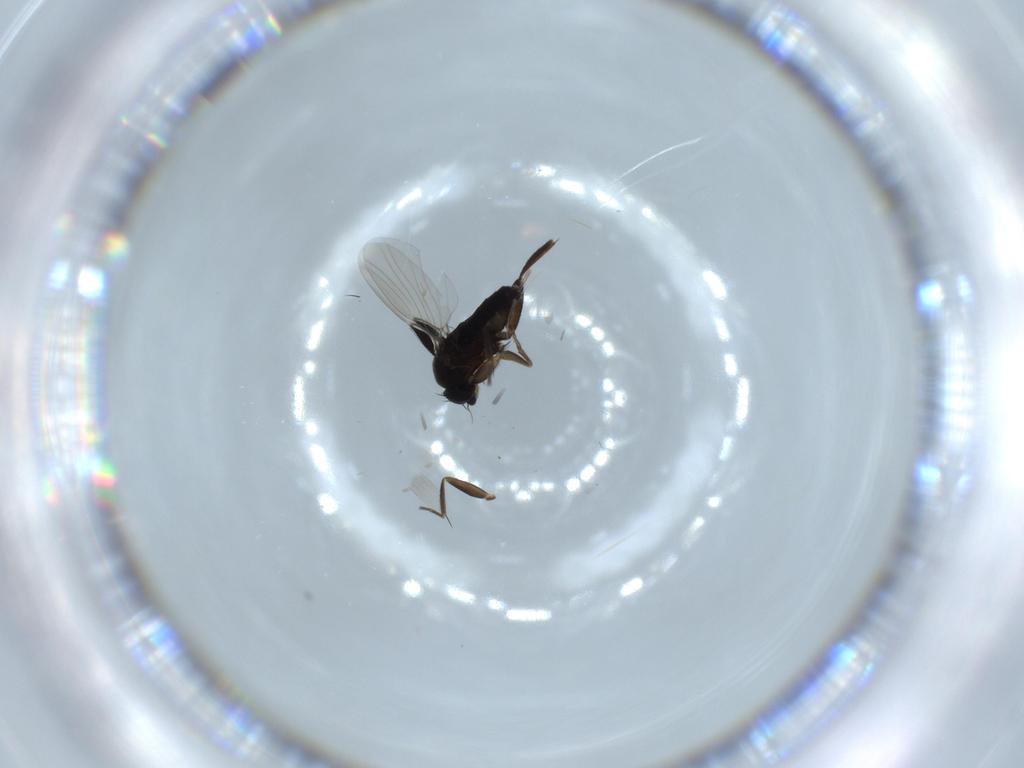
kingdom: Animalia
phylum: Arthropoda
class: Insecta
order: Diptera
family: Phoridae
